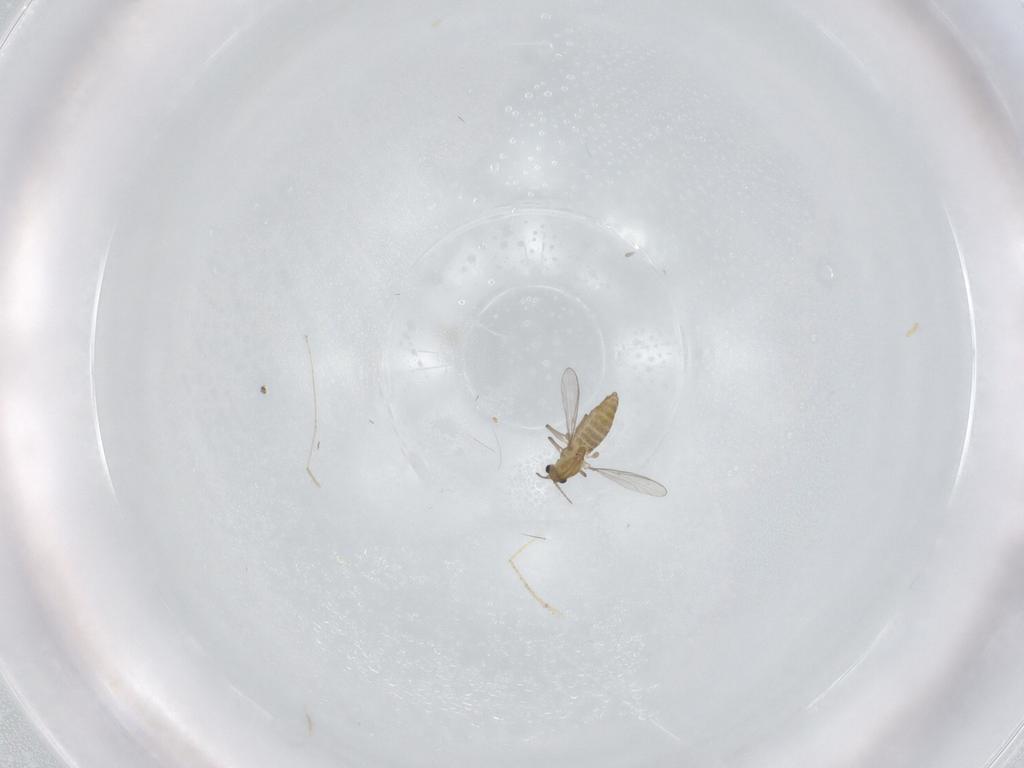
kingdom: Animalia
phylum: Arthropoda
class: Insecta
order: Diptera
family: Chironomidae
